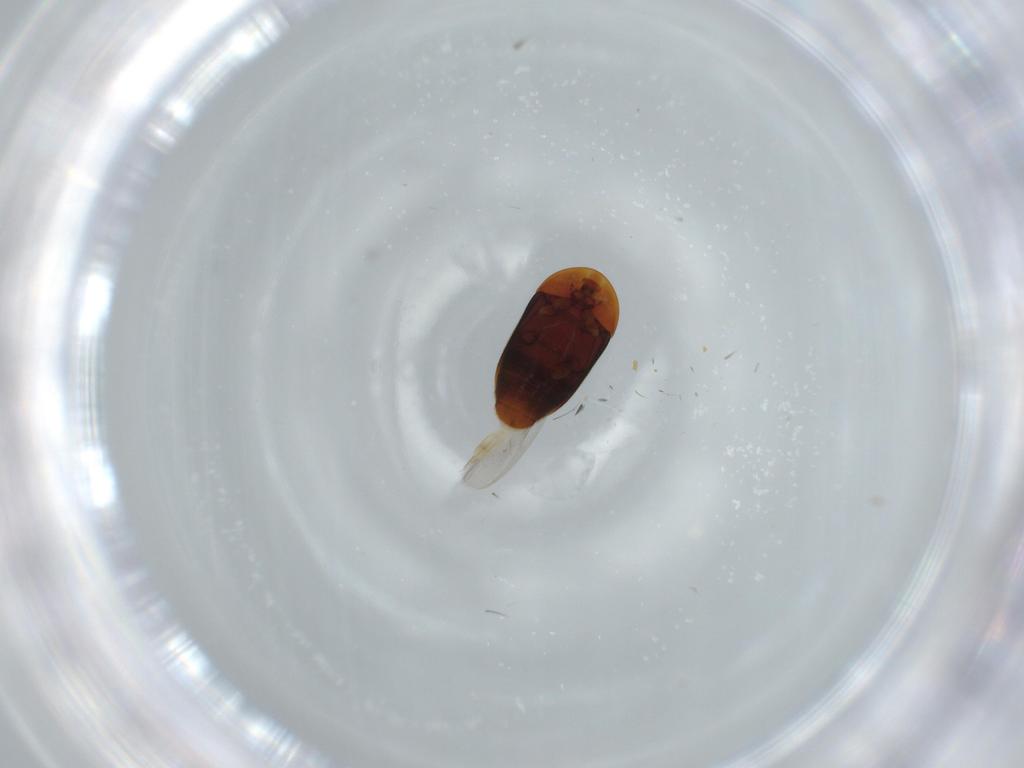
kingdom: Animalia
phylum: Arthropoda
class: Insecta
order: Coleoptera
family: Corylophidae
